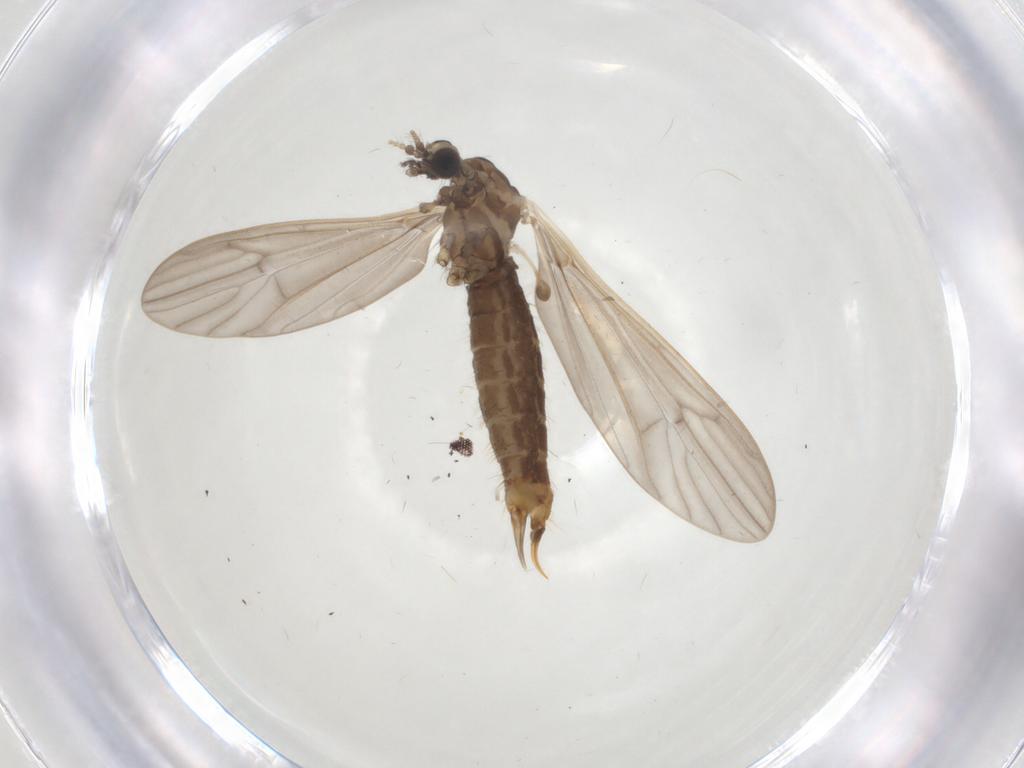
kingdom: Animalia
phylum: Arthropoda
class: Insecta
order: Diptera
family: Limoniidae
